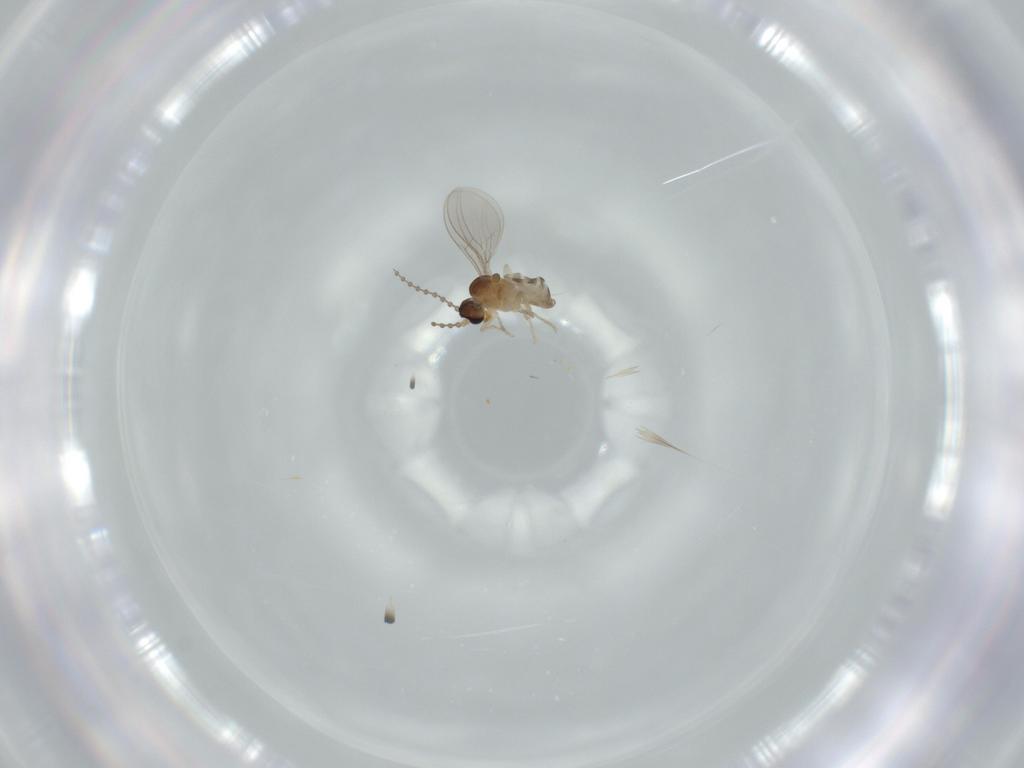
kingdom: Animalia
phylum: Arthropoda
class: Insecta
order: Diptera
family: Cecidomyiidae
